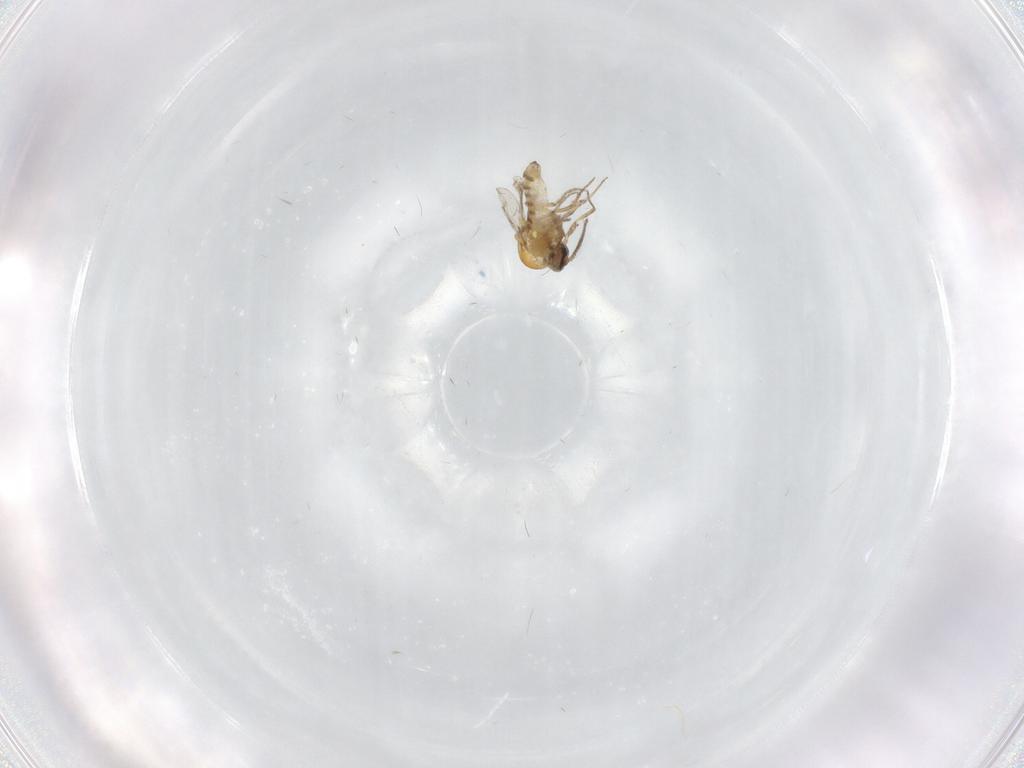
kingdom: Animalia
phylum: Arthropoda
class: Insecta
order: Diptera
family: Ceratopogonidae
